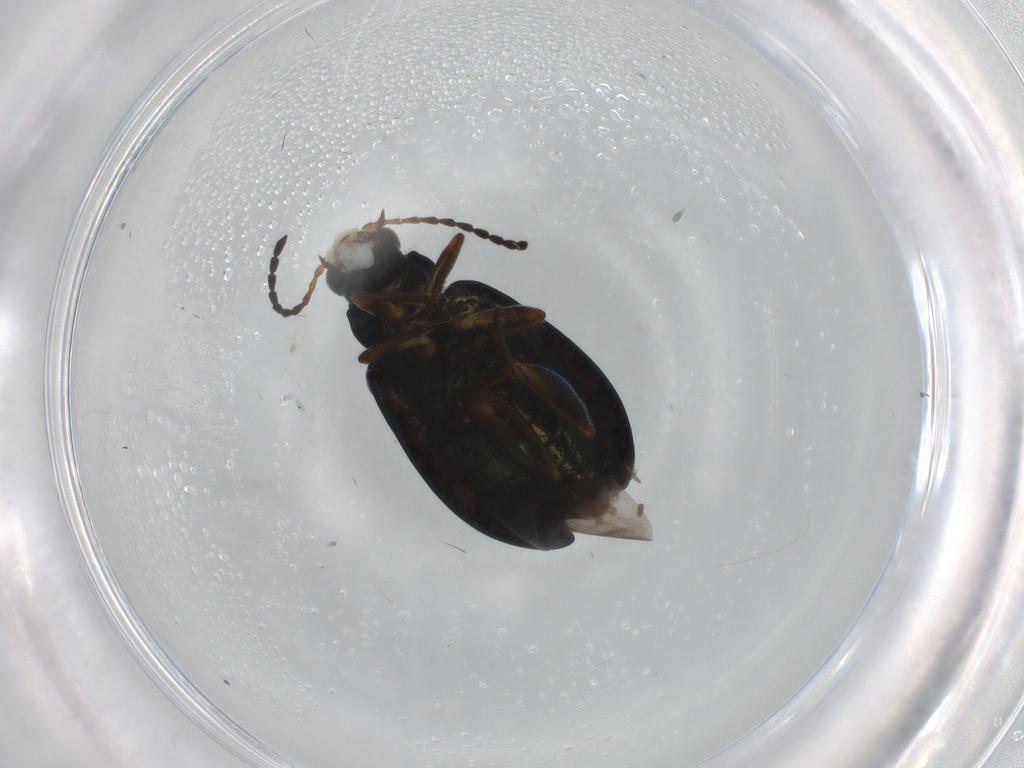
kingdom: Animalia
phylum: Arthropoda
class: Insecta
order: Coleoptera
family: Chrysomelidae
